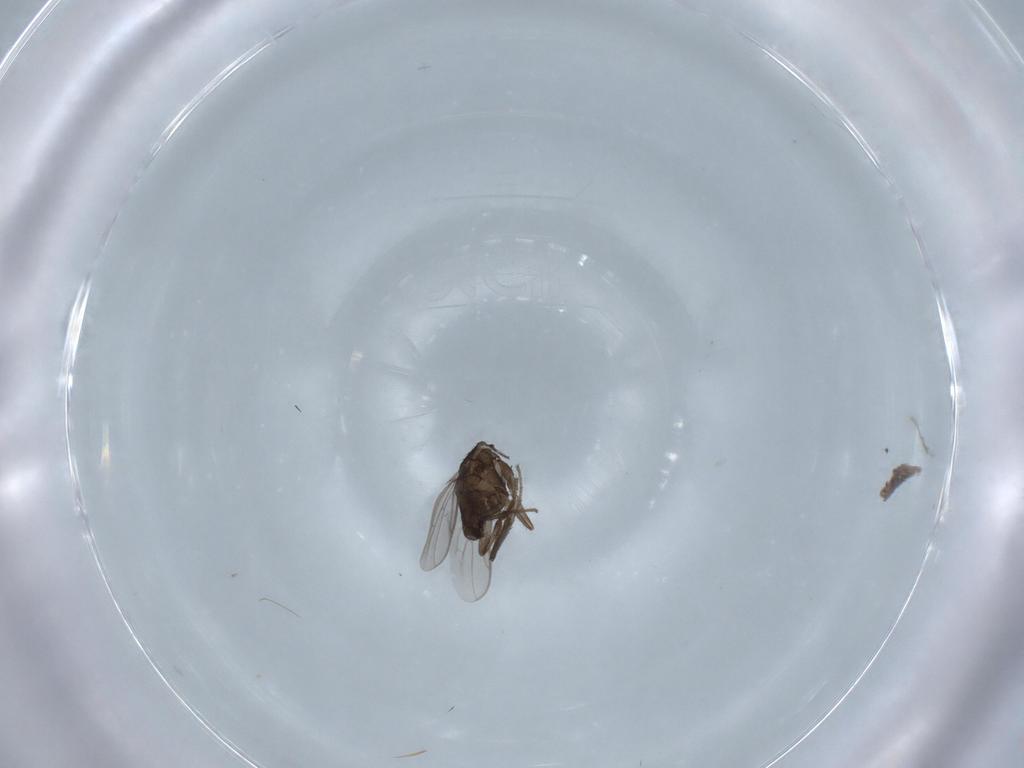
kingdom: Animalia
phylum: Arthropoda
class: Insecta
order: Diptera
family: Sphaeroceridae
